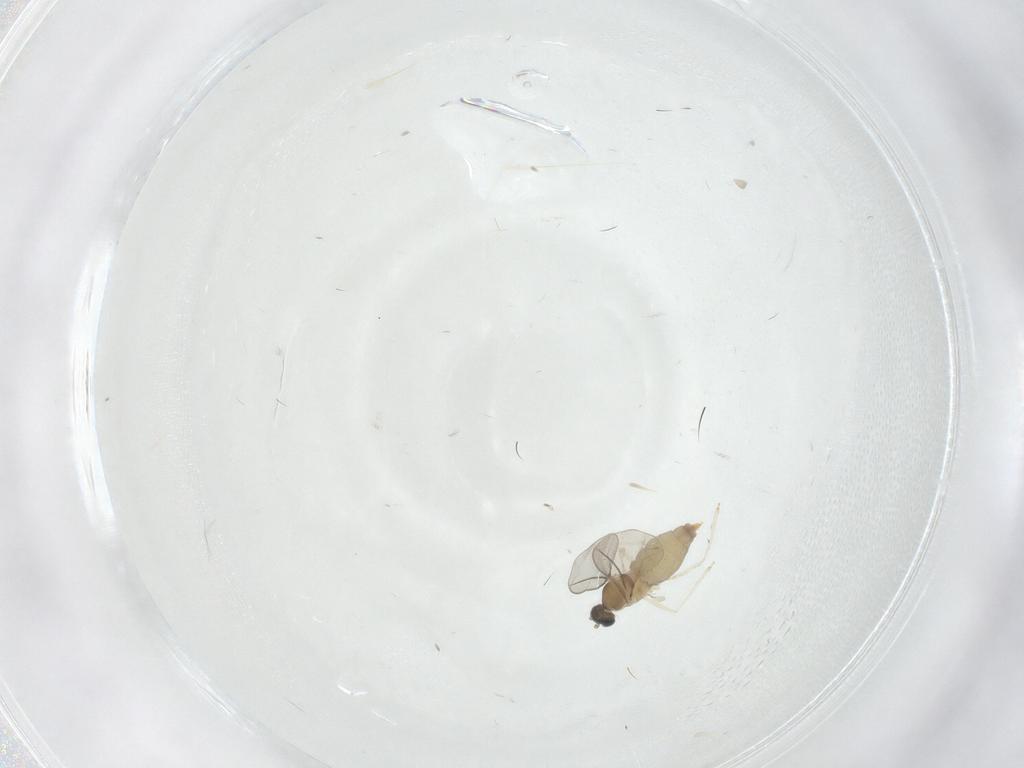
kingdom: Animalia
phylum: Arthropoda
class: Insecta
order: Diptera
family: Cecidomyiidae
